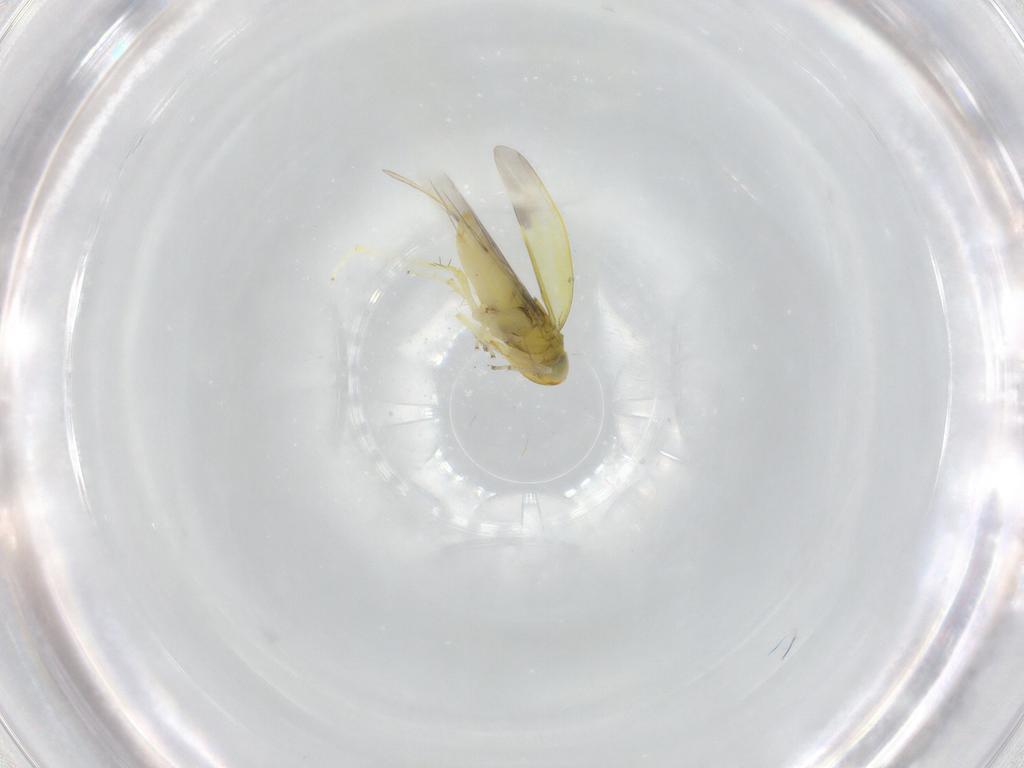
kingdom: Animalia
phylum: Arthropoda
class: Insecta
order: Hemiptera
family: Cicadellidae
